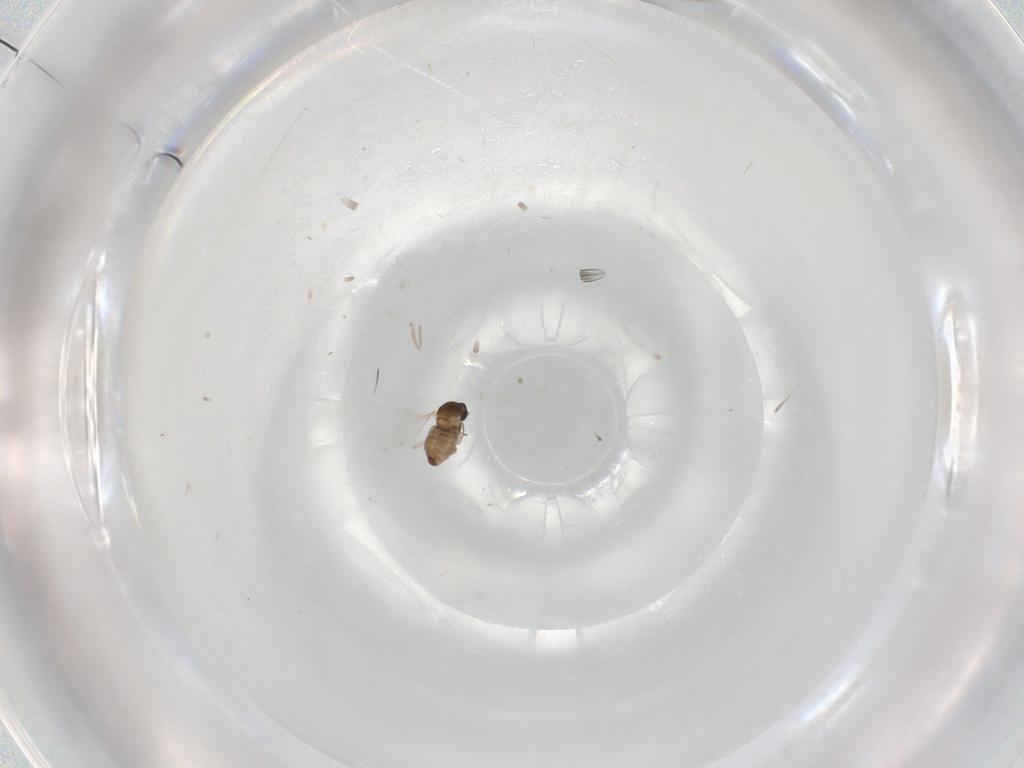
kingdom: Animalia
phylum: Arthropoda
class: Insecta
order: Diptera
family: Cecidomyiidae
